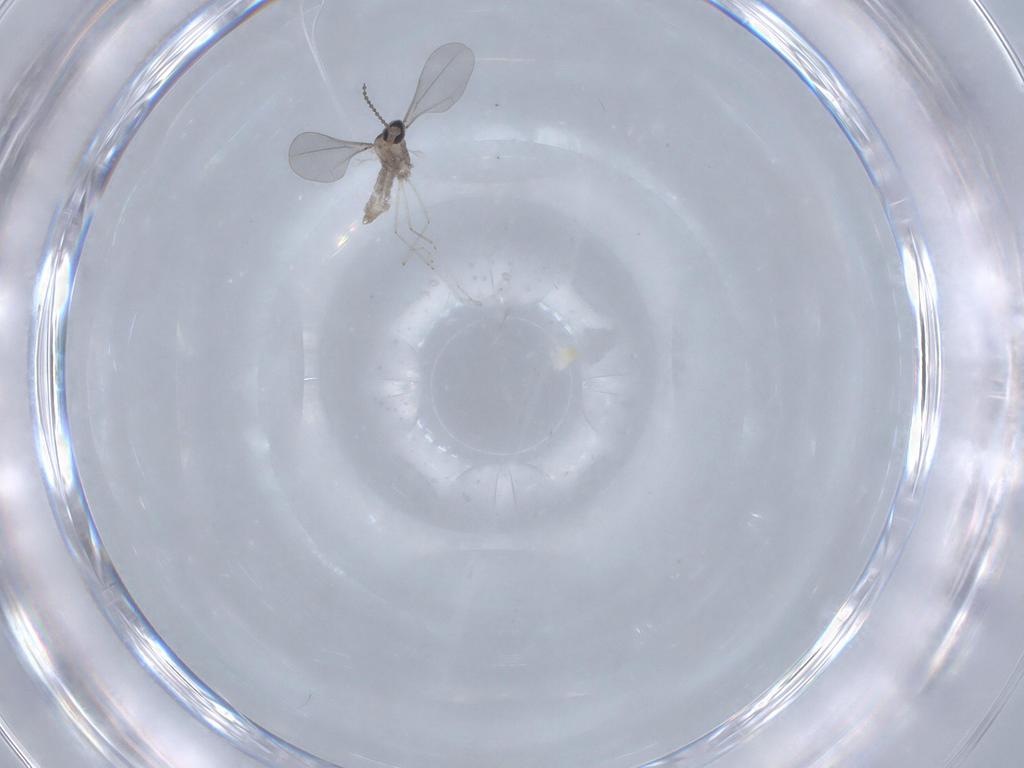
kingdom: Animalia
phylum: Arthropoda
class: Insecta
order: Diptera
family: Cecidomyiidae
